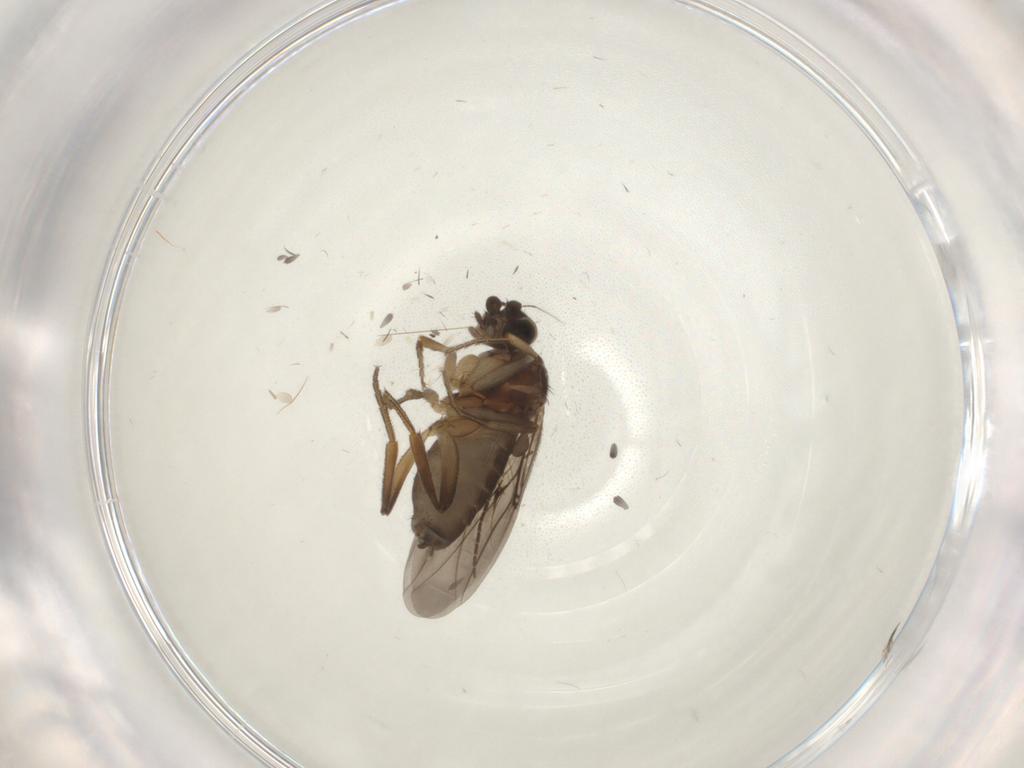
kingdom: Animalia
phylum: Arthropoda
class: Insecta
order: Diptera
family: Phoridae
